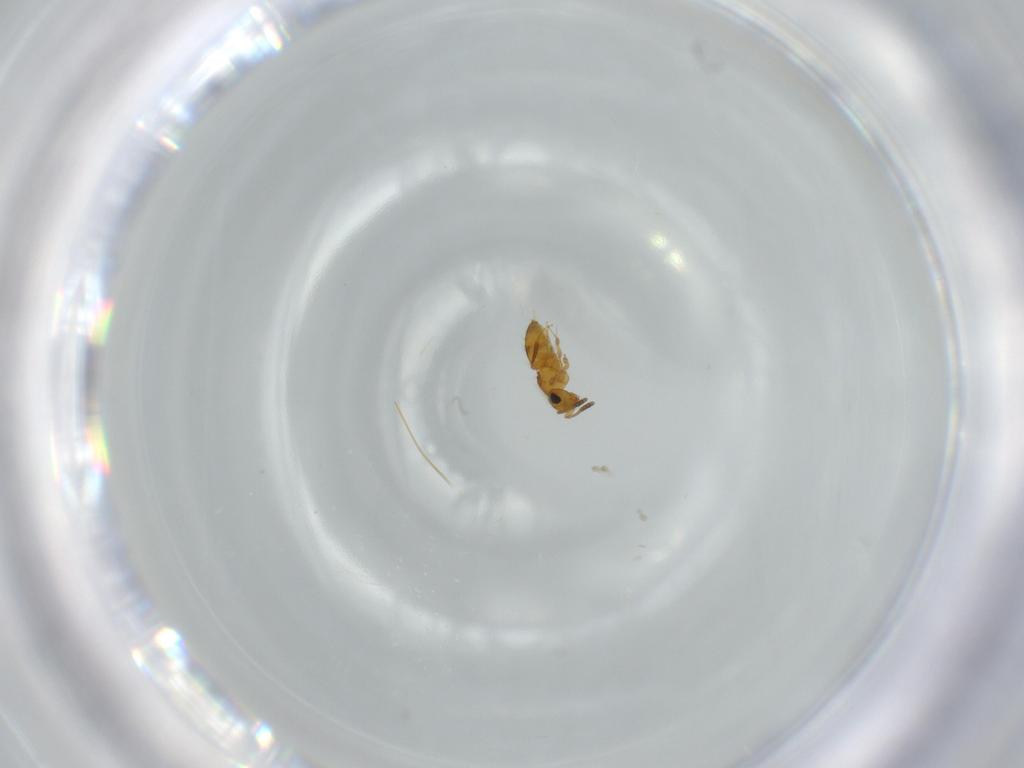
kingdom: Animalia
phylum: Arthropoda
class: Insecta
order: Hymenoptera
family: Scelionidae
